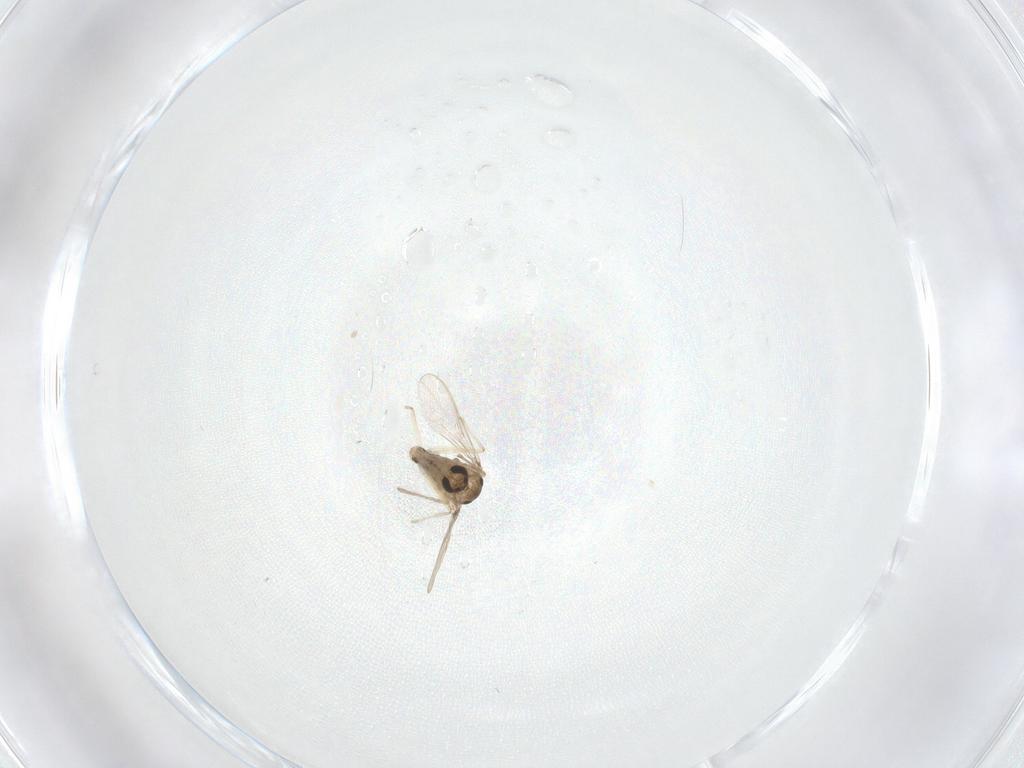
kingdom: Animalia
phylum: Arthropoda
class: Insecta
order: Diptera
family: Chironomidae
